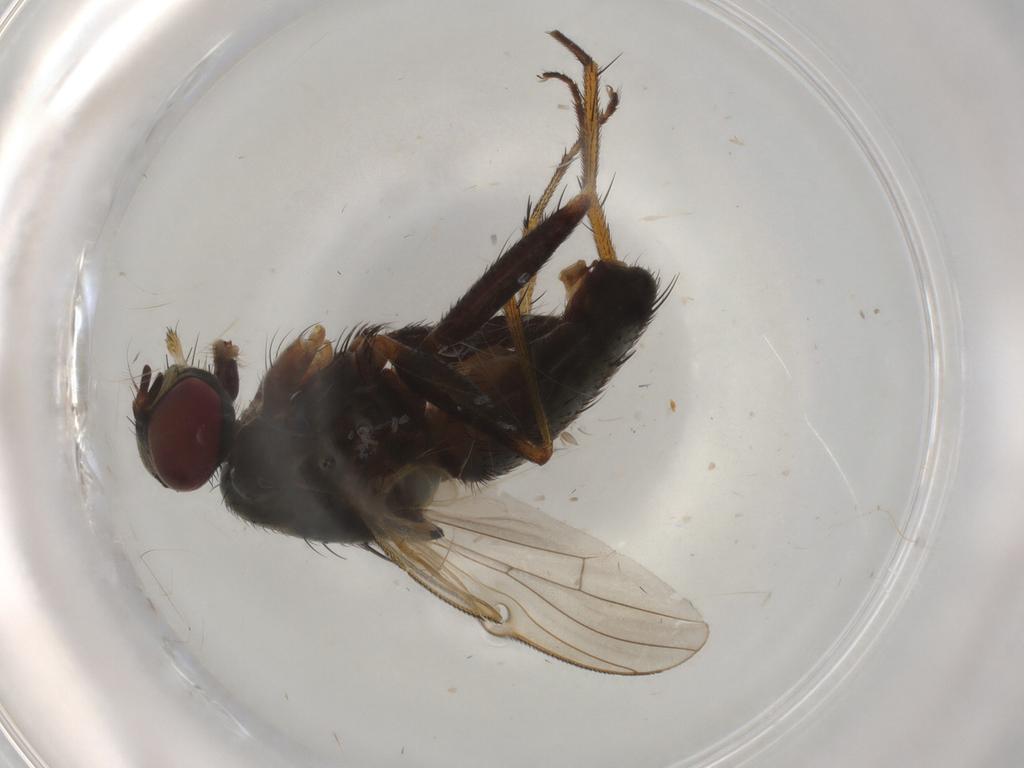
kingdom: Animalia
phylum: Arthropoda
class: Insecta
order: Diptera
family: Muscidae
